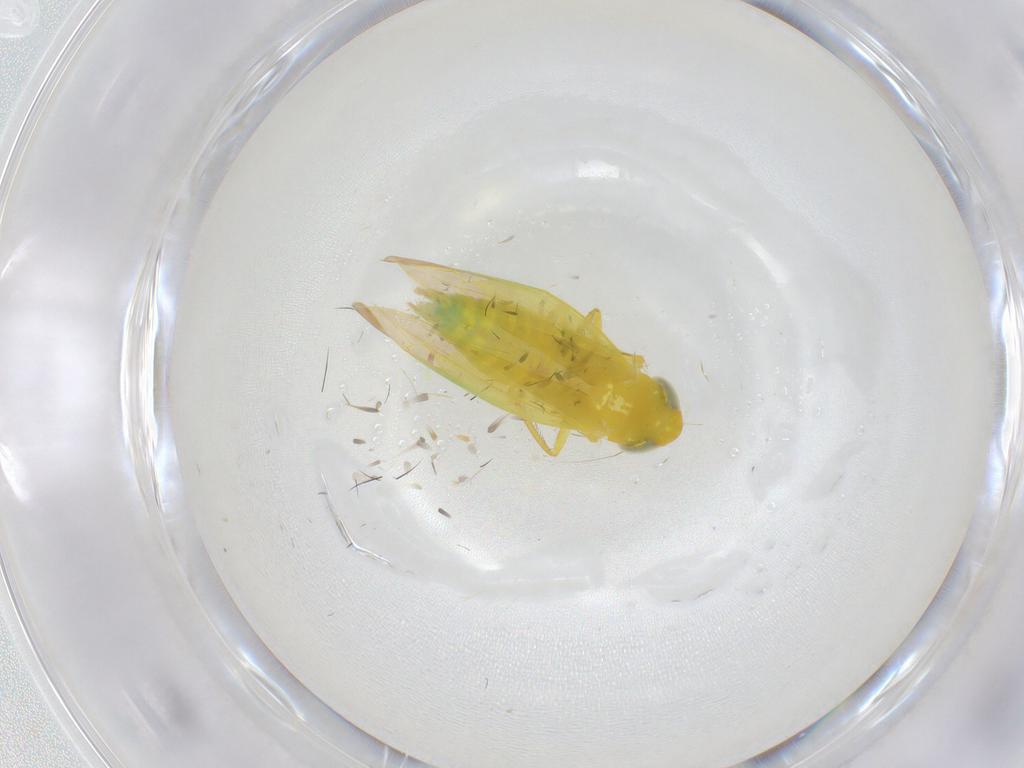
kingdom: Animalia
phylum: Arthropoda
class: Insecta
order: Hemiptera
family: Cicadellidae
